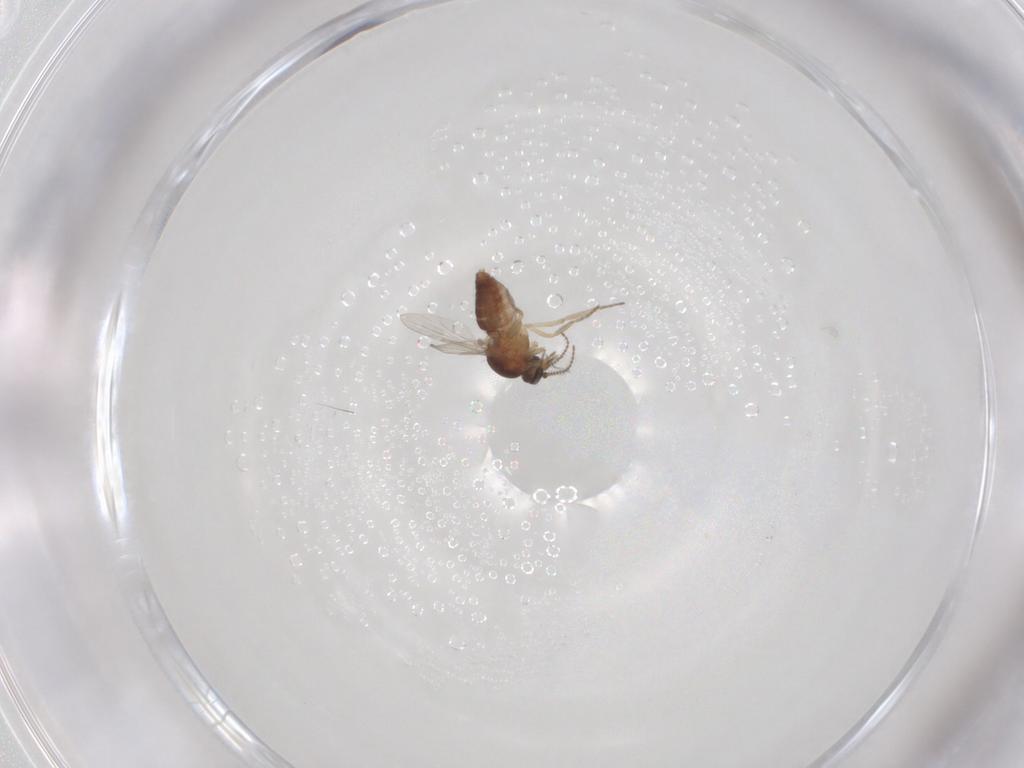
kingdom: Animalia
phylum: Arthropoda
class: Insecta
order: Diptera
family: Ceratopogonidae
